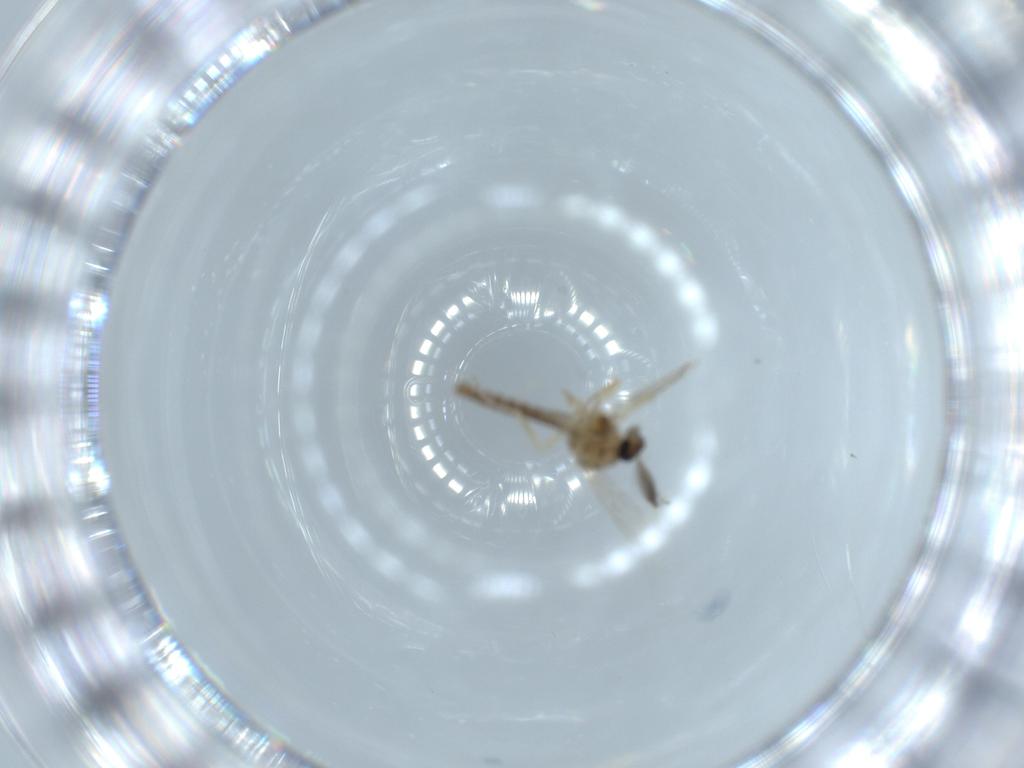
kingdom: Animalia
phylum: Arthropoda
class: Insecta
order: Diptera
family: Ceratopogonidae
